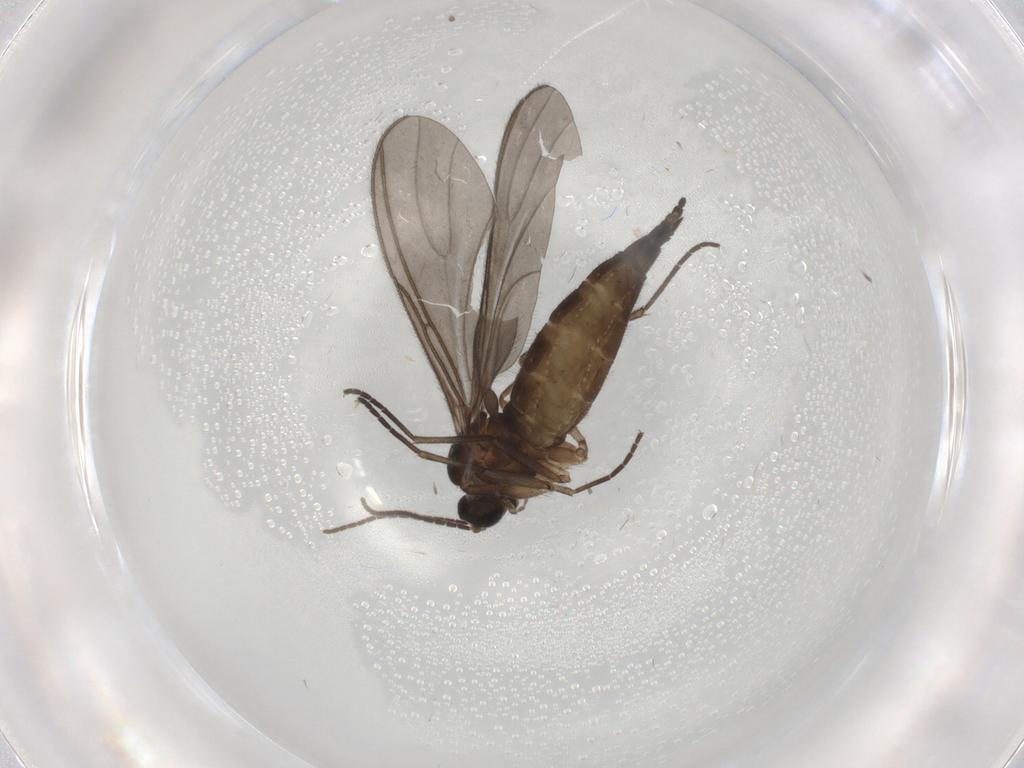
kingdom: Animalia
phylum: Arthropoda
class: Insecta
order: Diptera
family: Sciaridae
